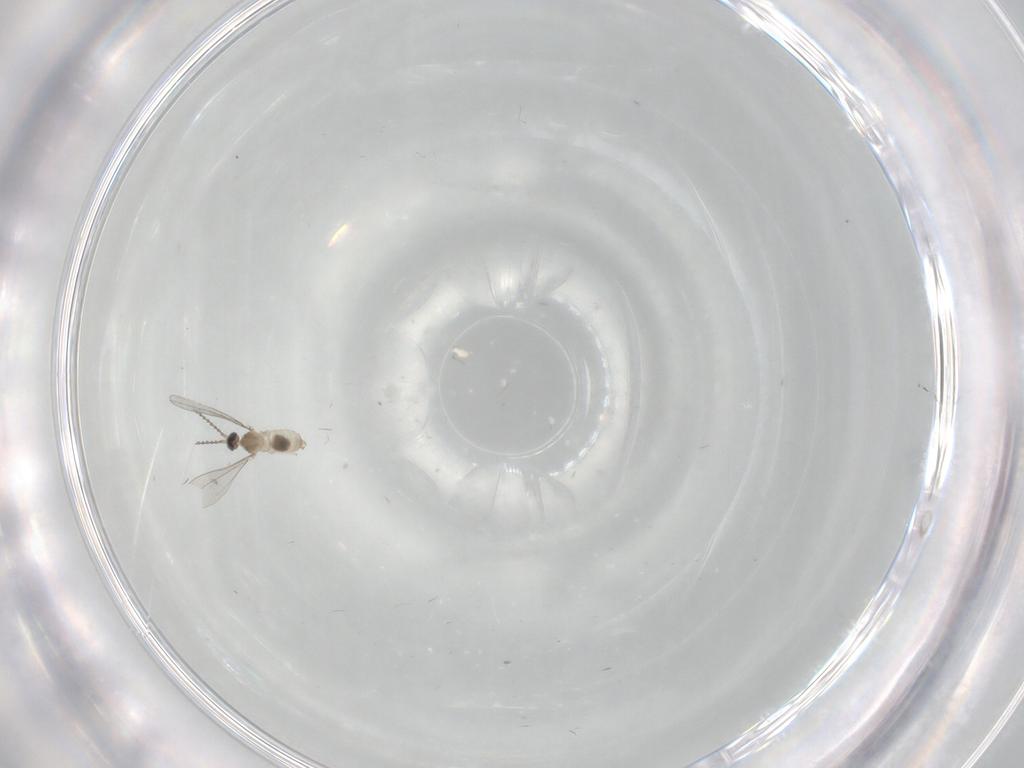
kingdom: Animalia
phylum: Arthropoda
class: Insecta
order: Diptera
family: Cecidomyiidae
